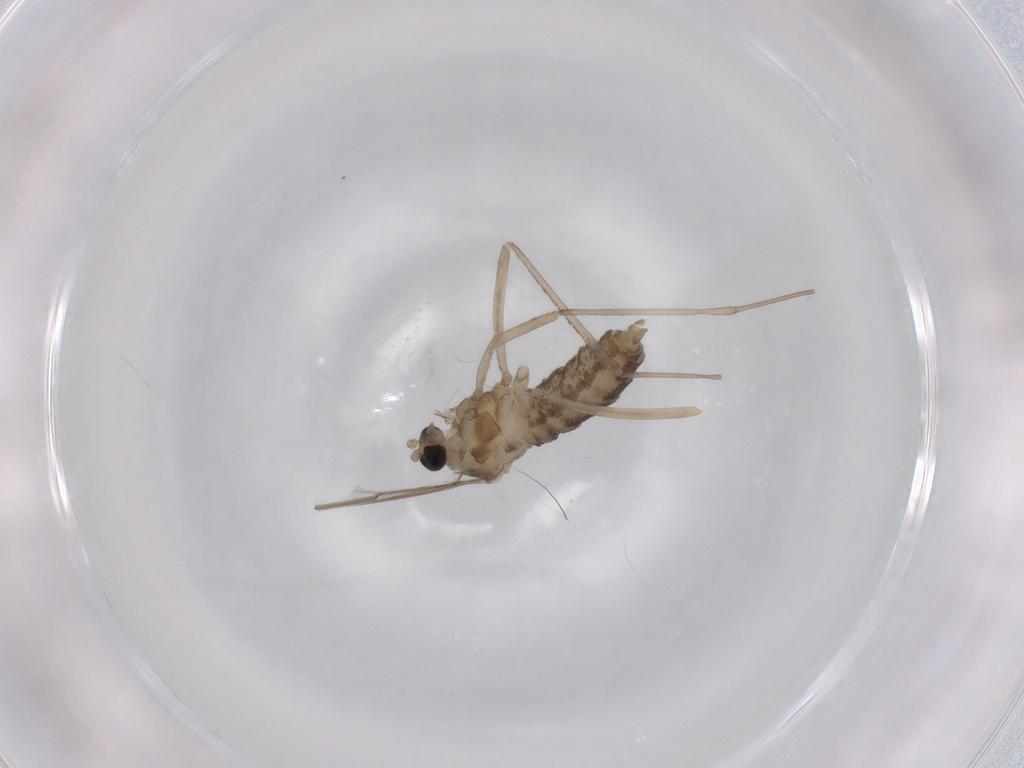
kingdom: Animalia
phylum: Arthropoda
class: Insecta
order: Diptera
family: Cecidomyiidae
